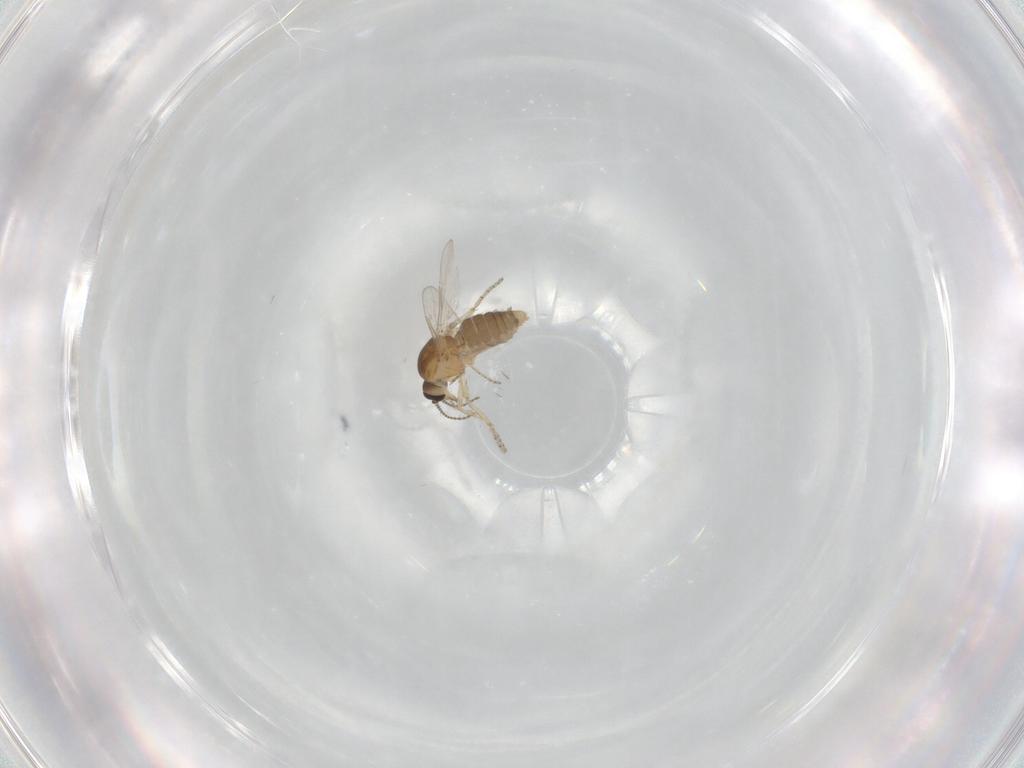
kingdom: Animalia
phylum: Arthropoda
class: Insecta
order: Diptera
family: Ceratopogonidae
